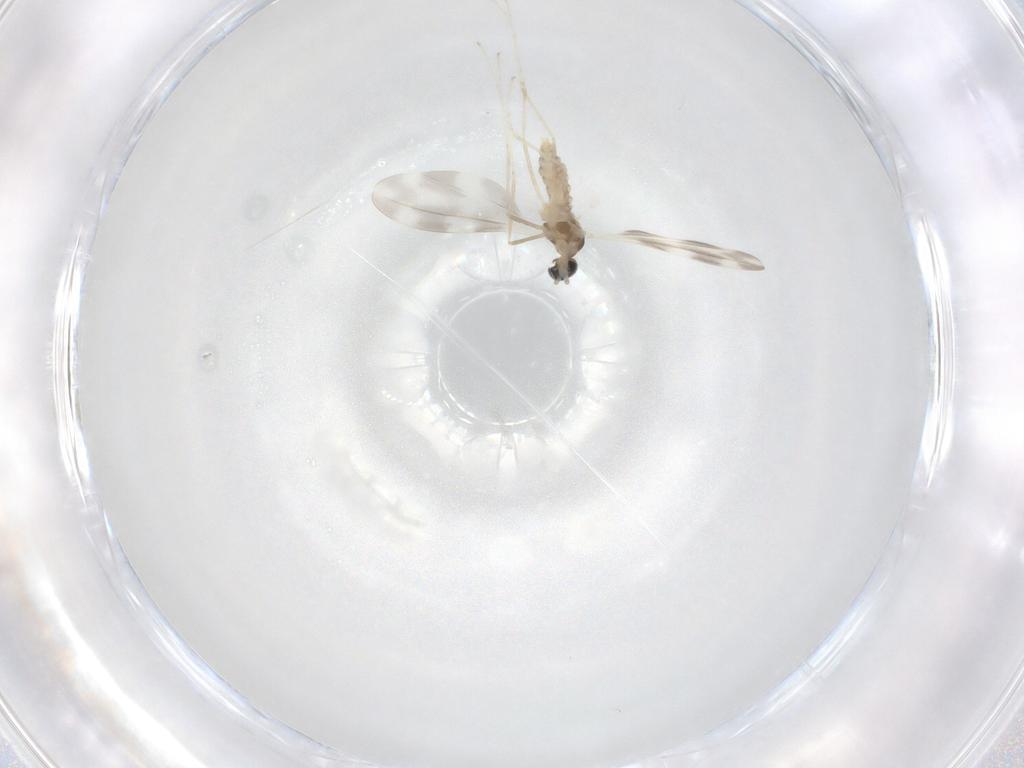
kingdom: Animalia
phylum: Arthropoda
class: Insecta
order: Diptera
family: Cecidomyiidae
